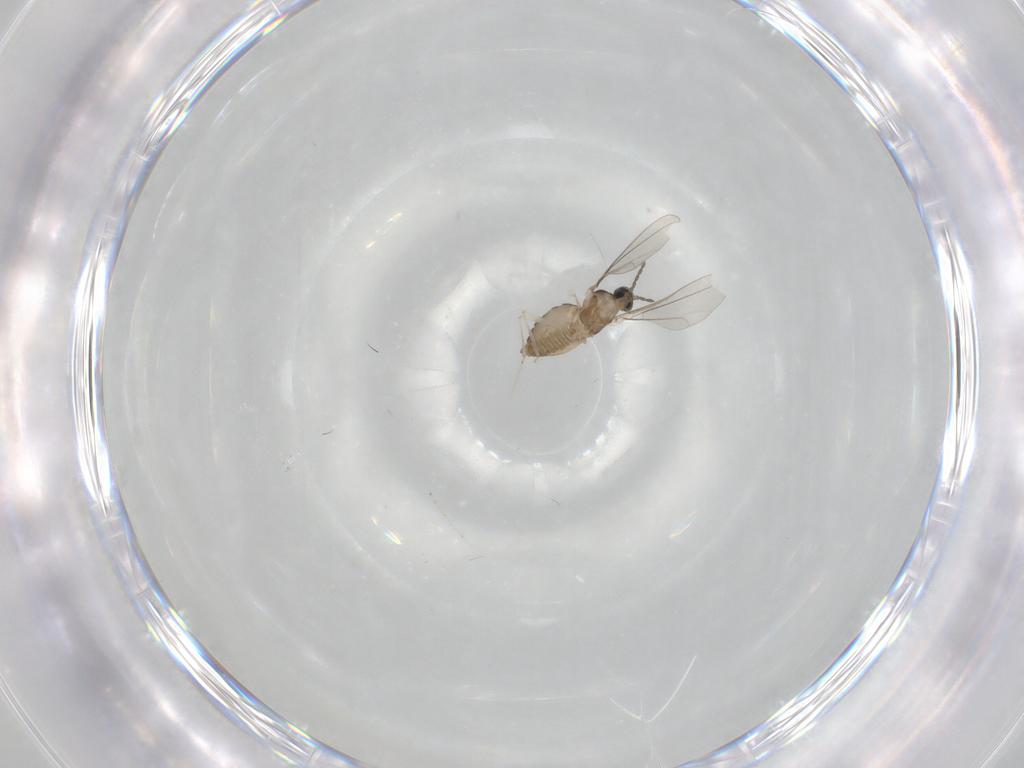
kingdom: Animalia
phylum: Arthropoda
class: Insecta
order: Diptera
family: Cecidomyiidae
